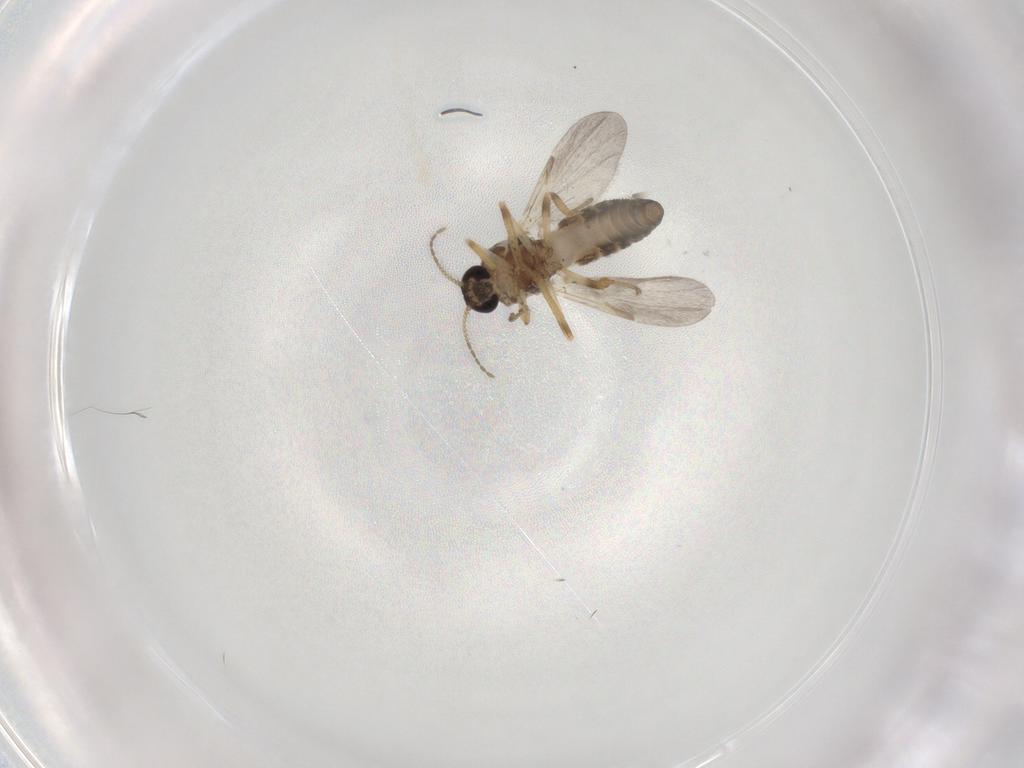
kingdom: Animalia
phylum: Arthropoda
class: Insecta
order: Diptera
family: Ceratopogonidae
